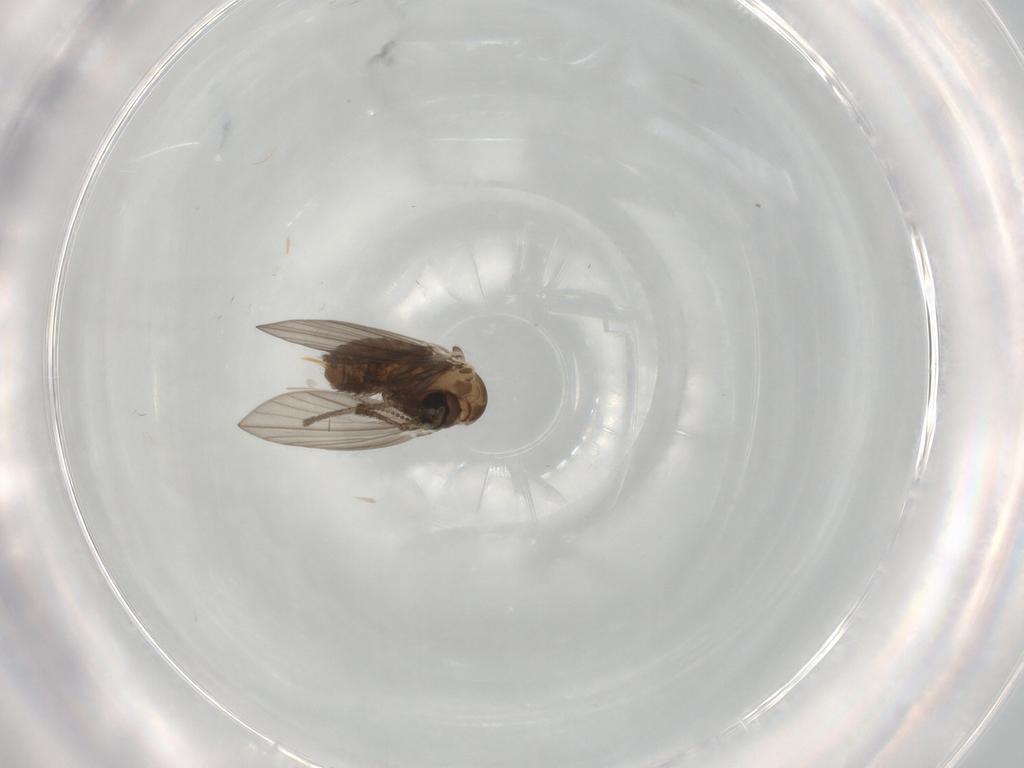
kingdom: Animalia
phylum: Arthropoda
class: Insecta
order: Diptera
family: Psychodidae
